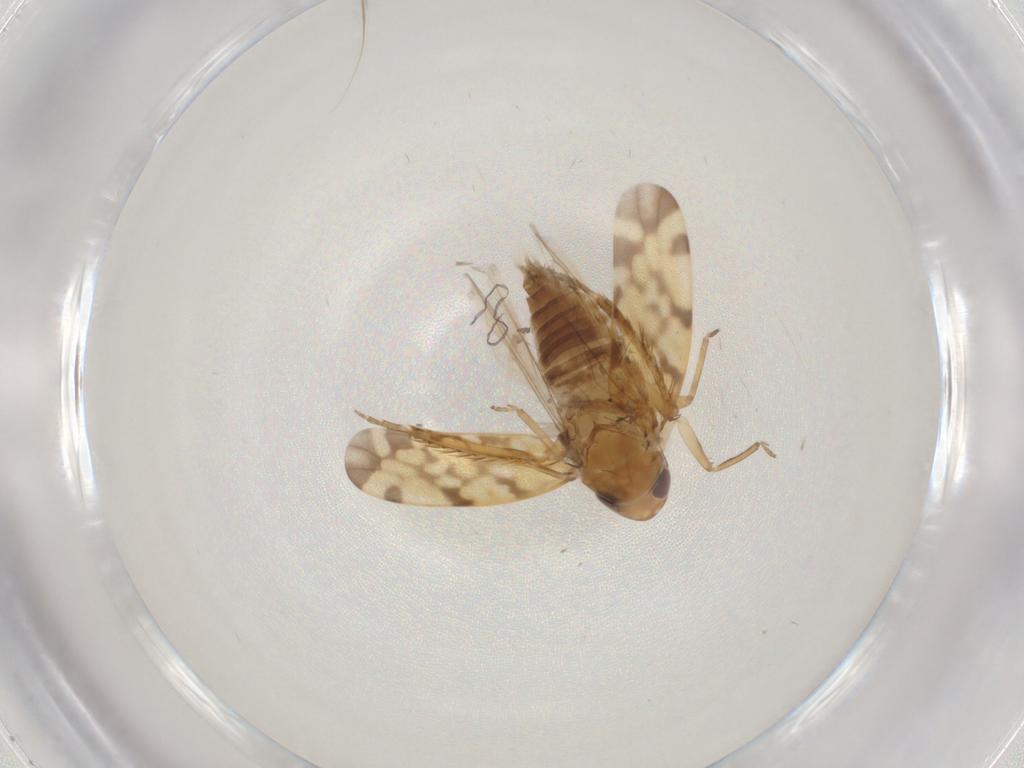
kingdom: Animalia
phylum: Arthropoda
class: Insecta
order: Hemiptera
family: Cicadellidae
